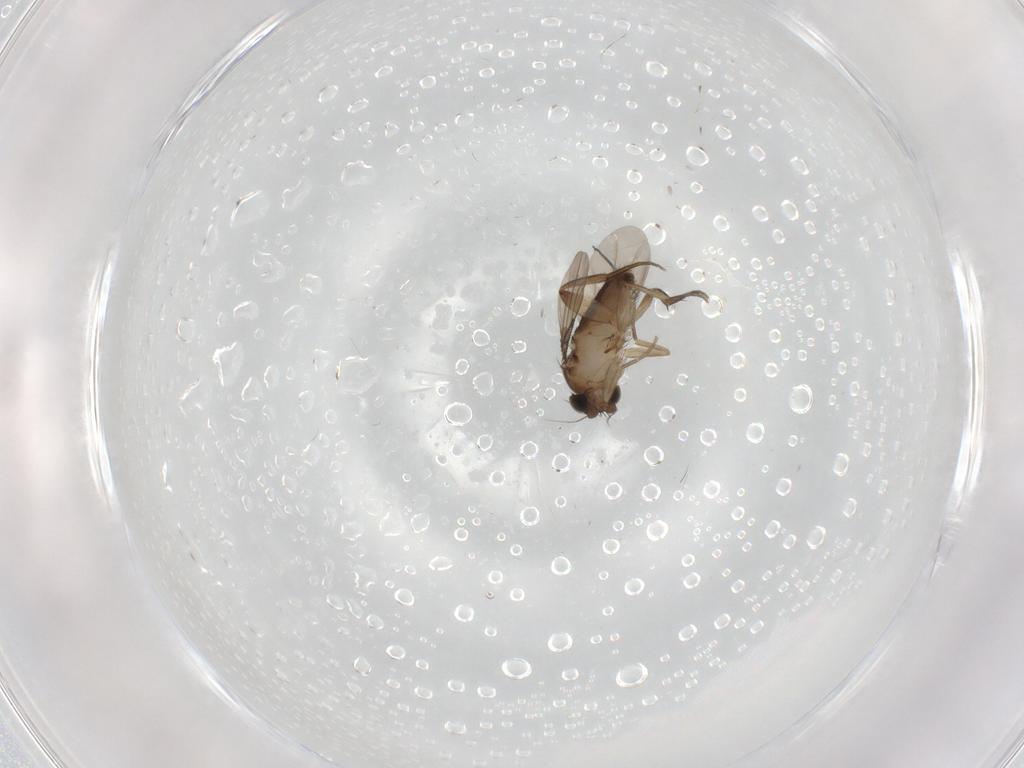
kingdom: Animalia
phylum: Arthropoda
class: Insecta
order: Diptera
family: Phoridae
